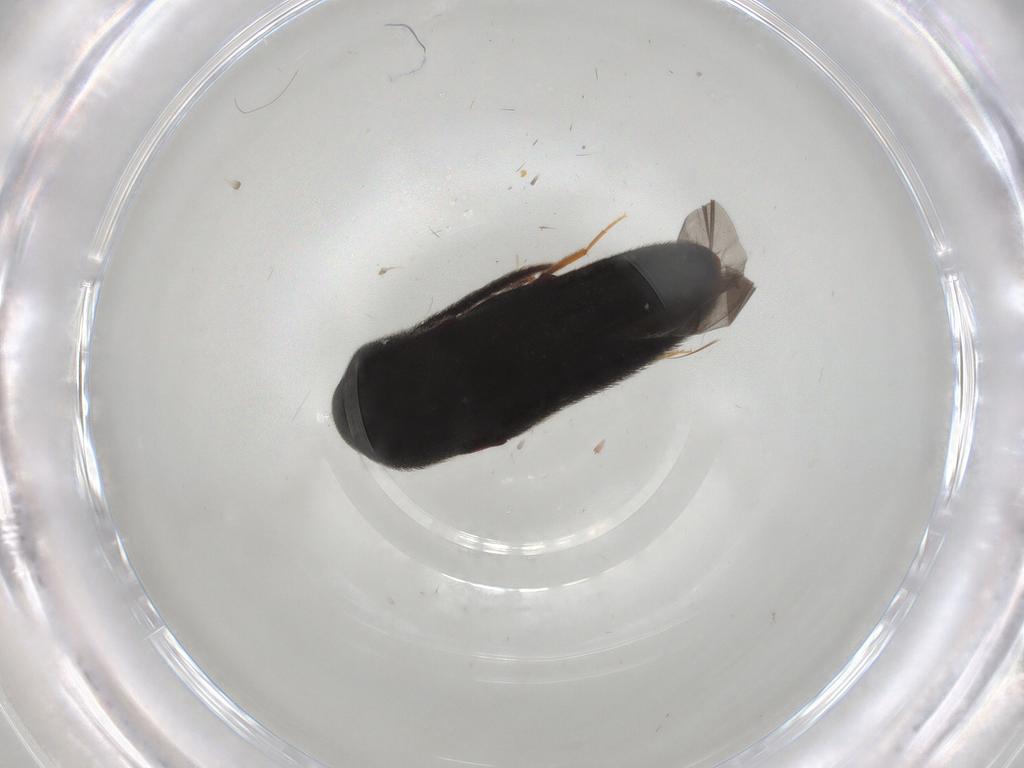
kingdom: Animalia
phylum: Arthropoda
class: Insecta
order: Coleoptera
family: Eucnemidae
